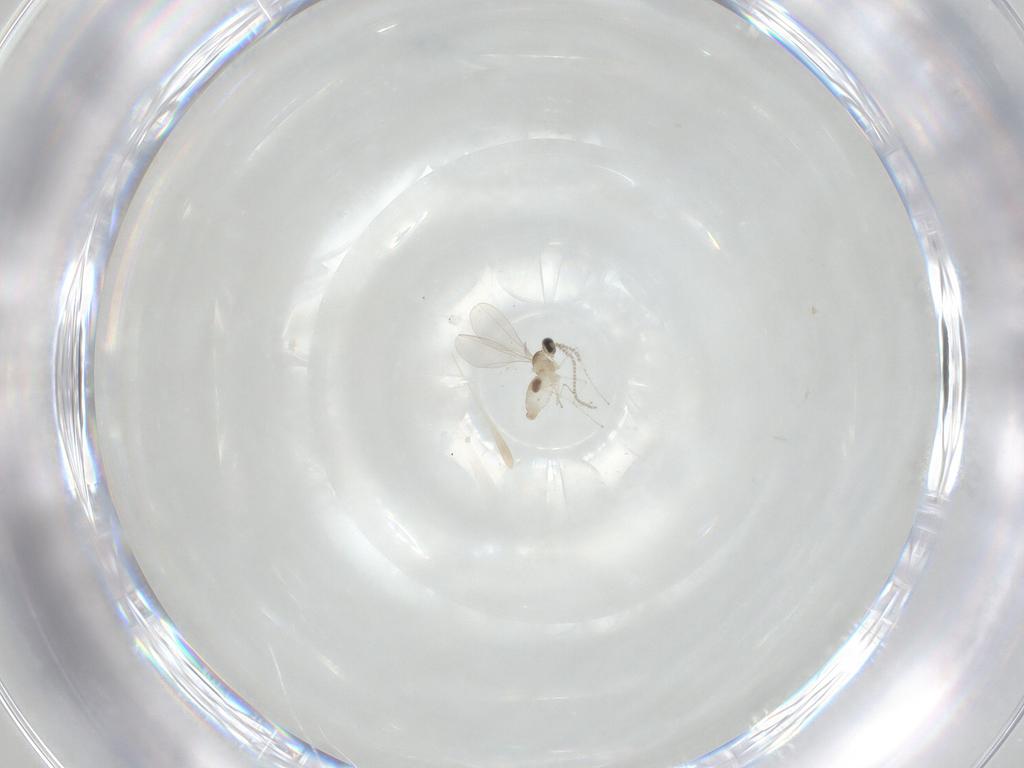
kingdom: Animalia
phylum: Arthropoda
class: Insecta
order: Diptera
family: Cecidomyiidae
